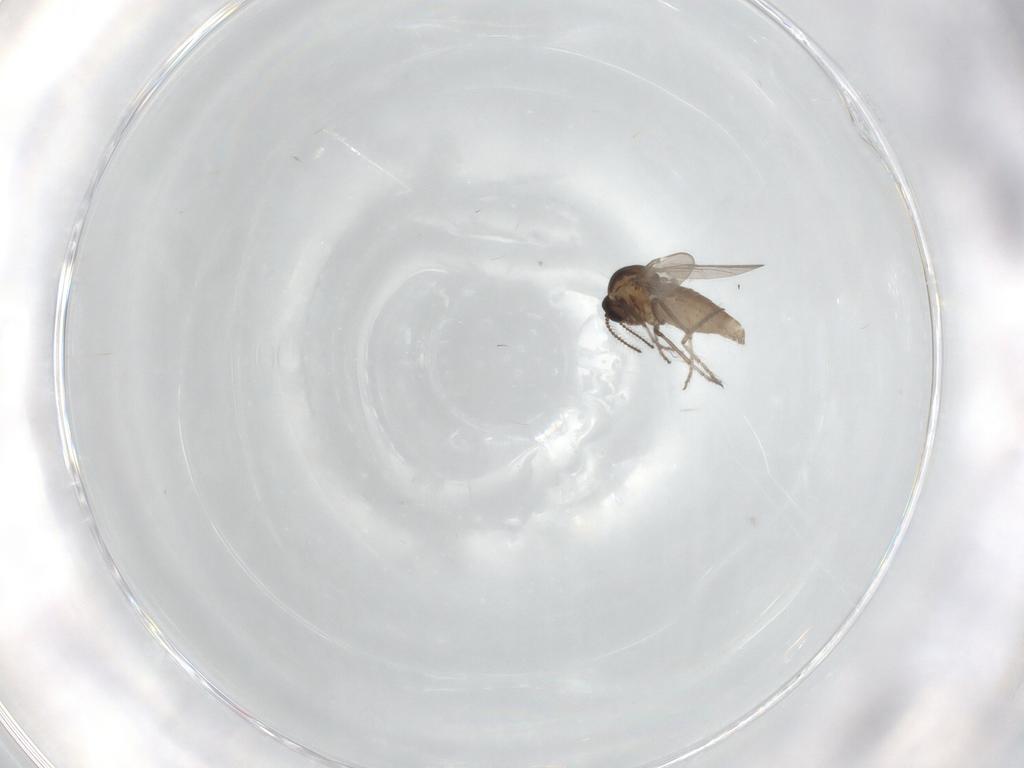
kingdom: Animalia
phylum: Arthropoda
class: Insecta
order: Diptera
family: Ceratopogonidae
